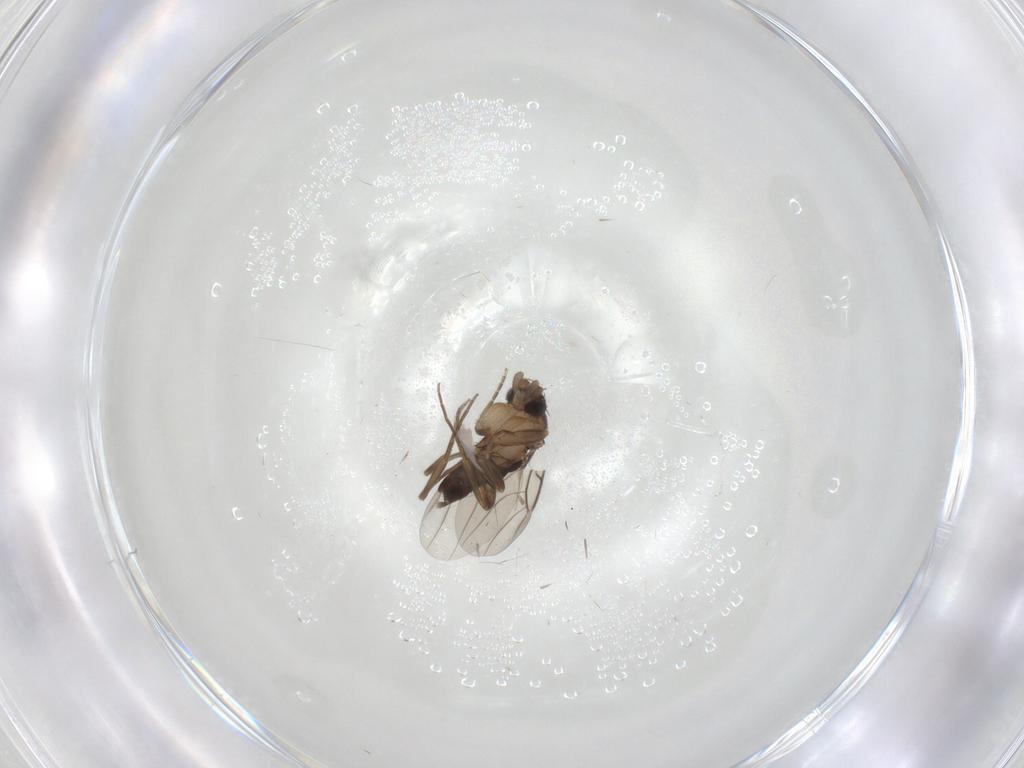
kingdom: Animalia
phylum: Arthropoda
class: Insecta
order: Diptera
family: Phoridae
